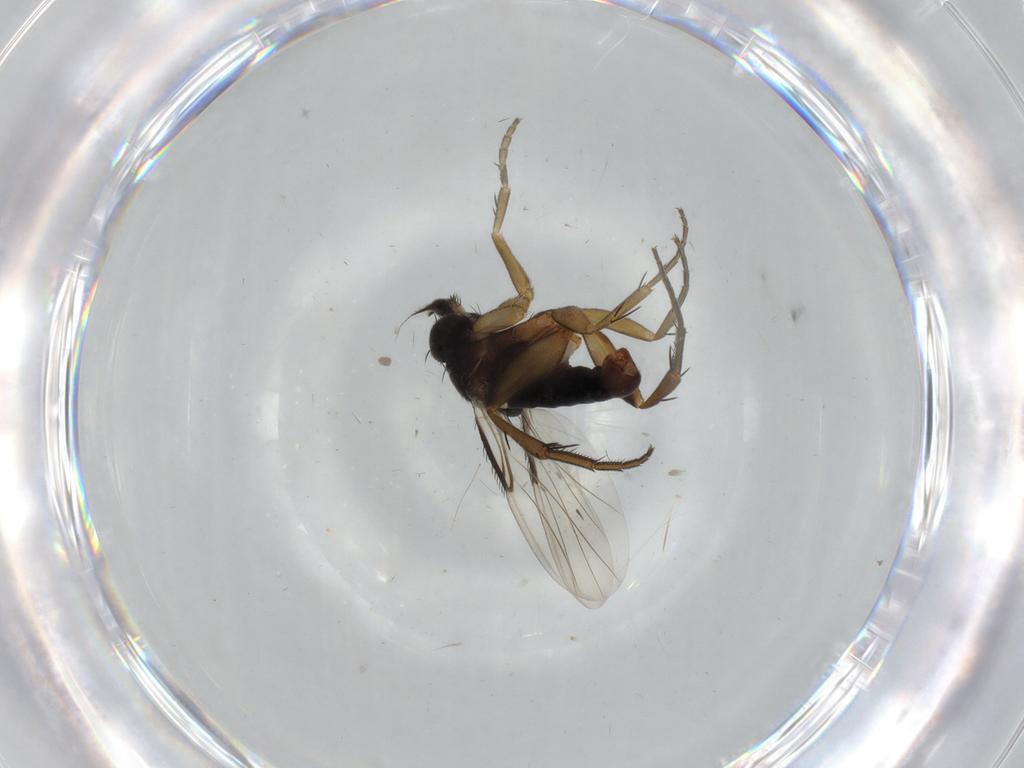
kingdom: Animalia
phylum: Arthropoda
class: Insecta
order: Diptera
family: Phoridae
